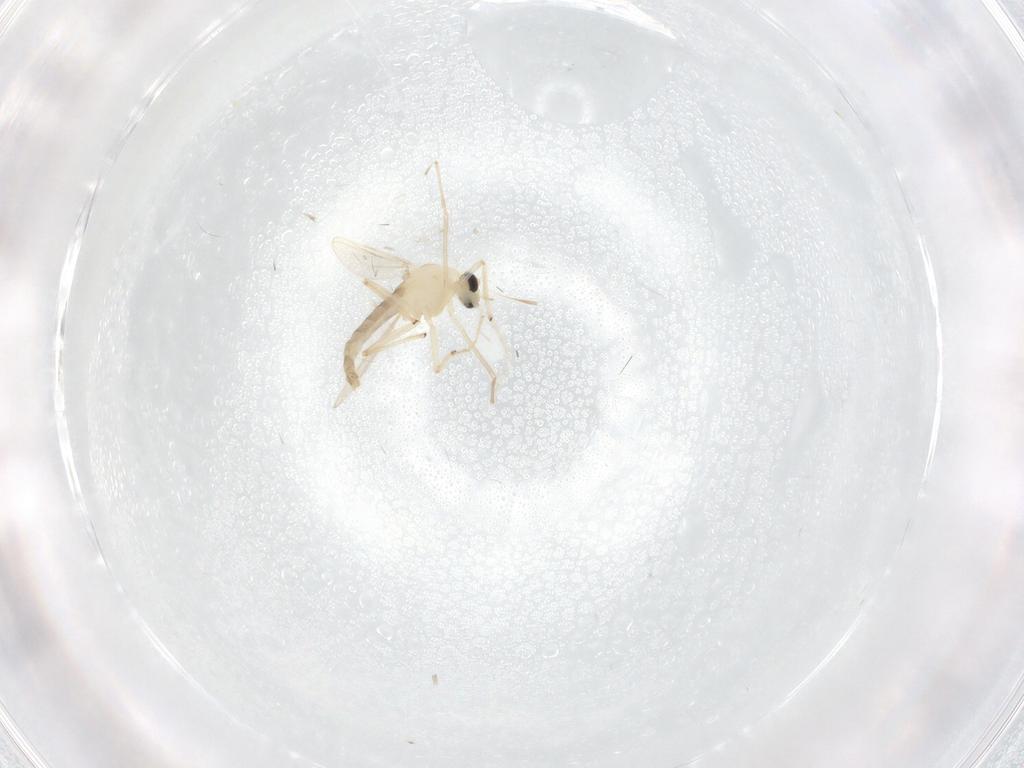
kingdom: Animalia
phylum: Arthropoda
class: Insecta
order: Diptera
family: Chironomidae
